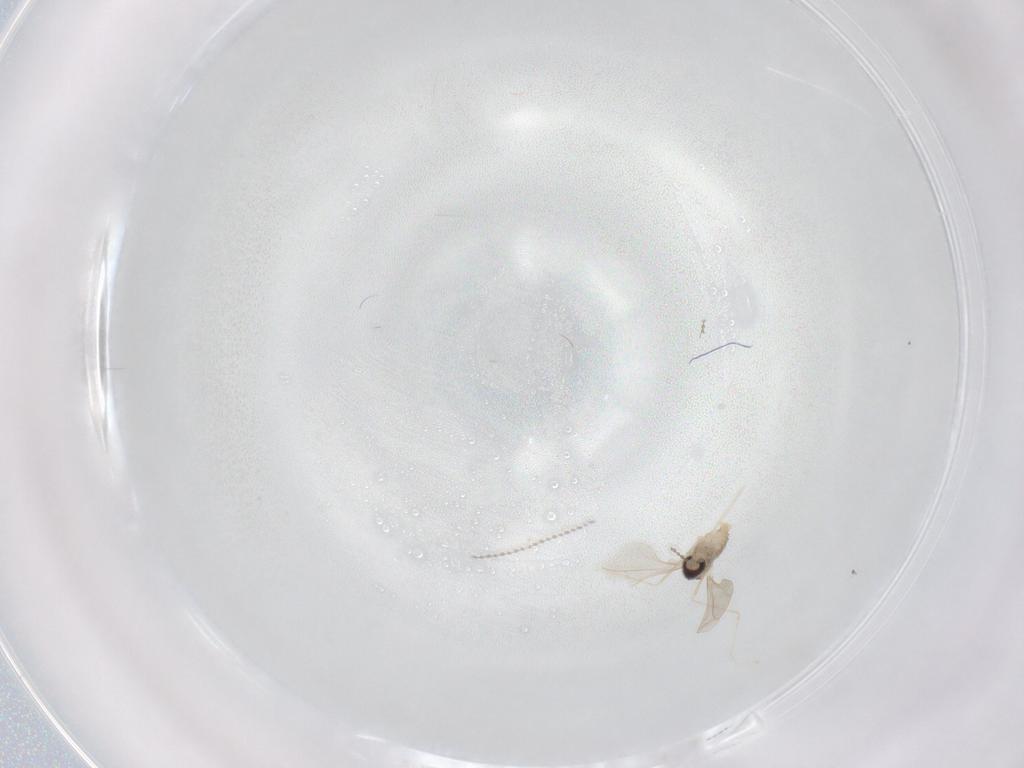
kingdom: Animalia
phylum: Arthropoda
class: Insecta
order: Diptera
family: Cecidomyiidae
